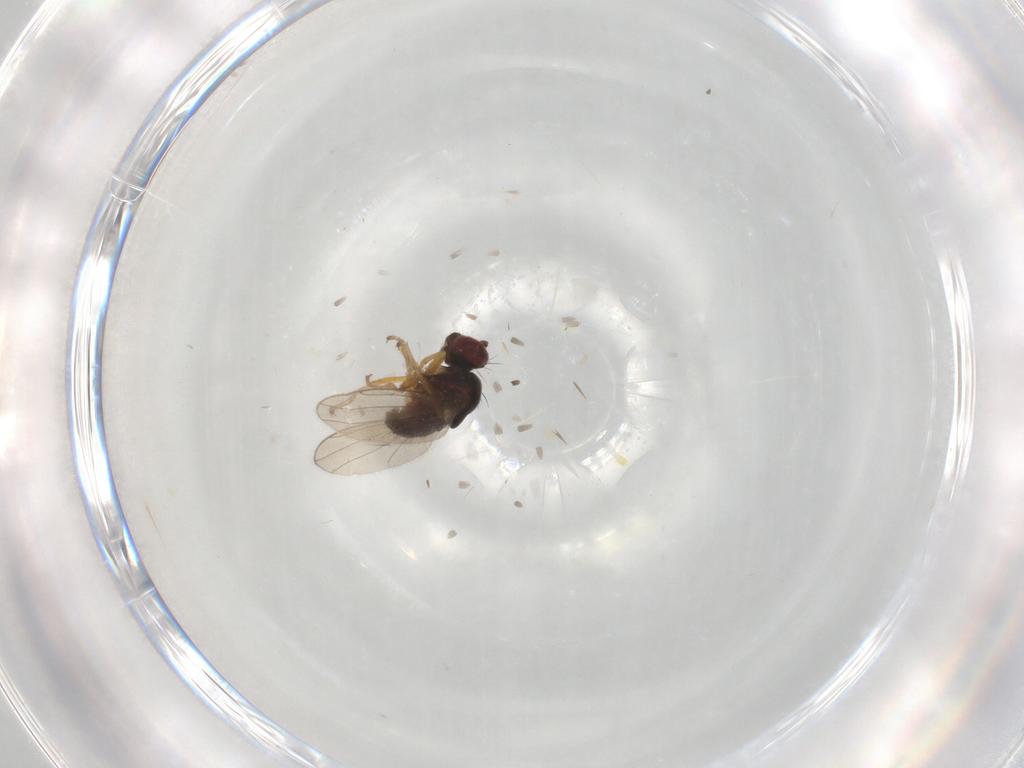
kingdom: Animalia
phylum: Arthropoda
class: Insecta
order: Diptera
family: Ephydridae
